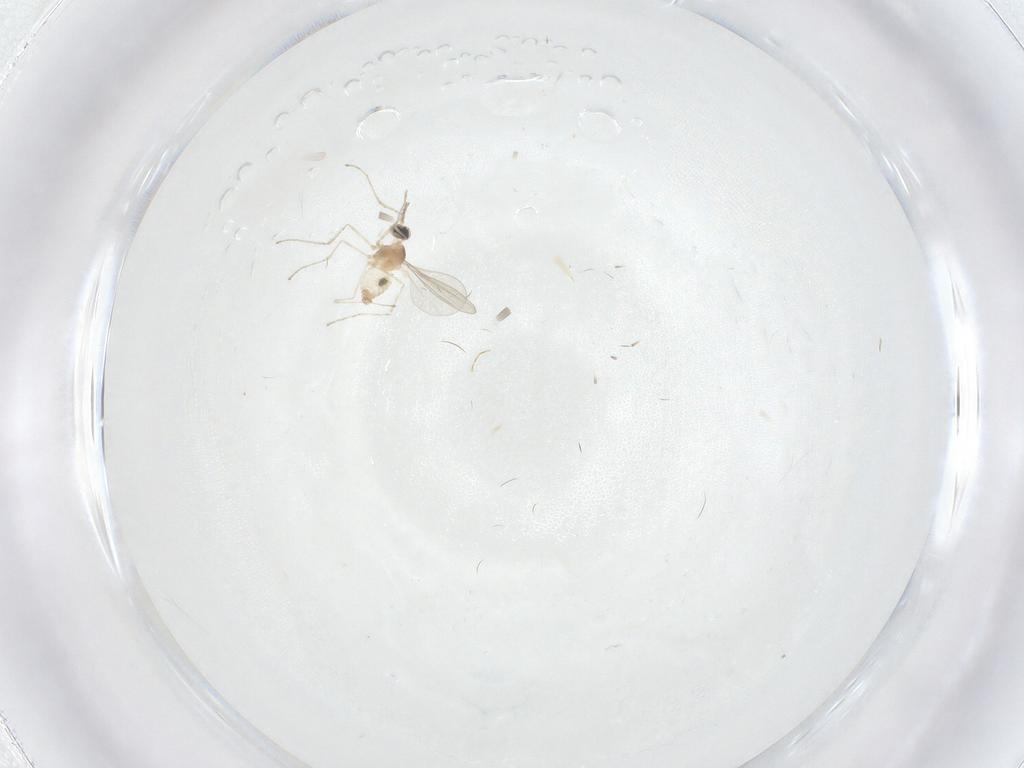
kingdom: Animalia
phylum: Arthropoda
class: Insecta
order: Diptera
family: Cecidomyiidae
